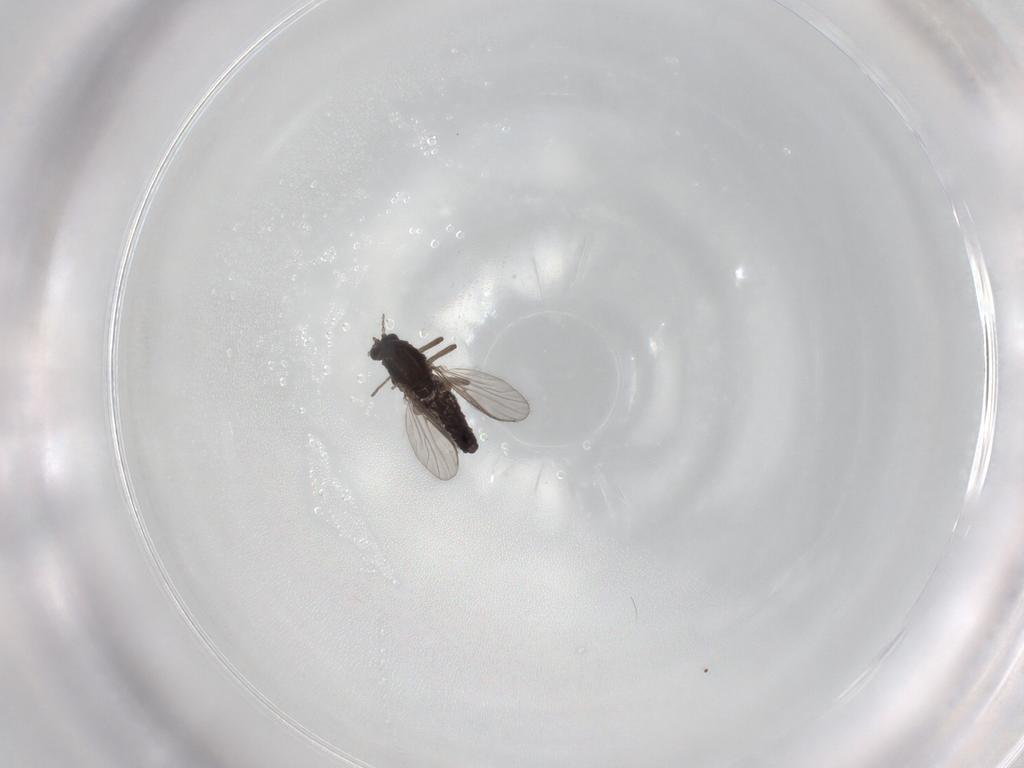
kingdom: Animalia
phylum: Arthropoda
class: Insecta
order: Diptera
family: Chironomidae
